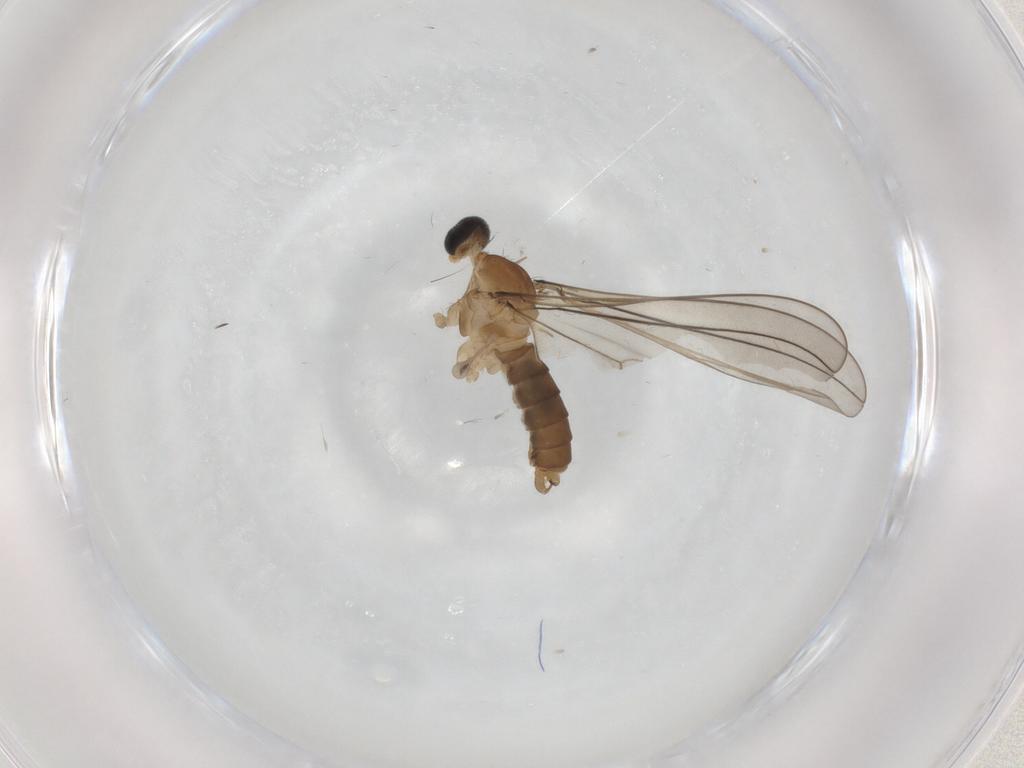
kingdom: Animalia
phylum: Arthropoda
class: Insecta
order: Diptera
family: Cecidomyiidae
